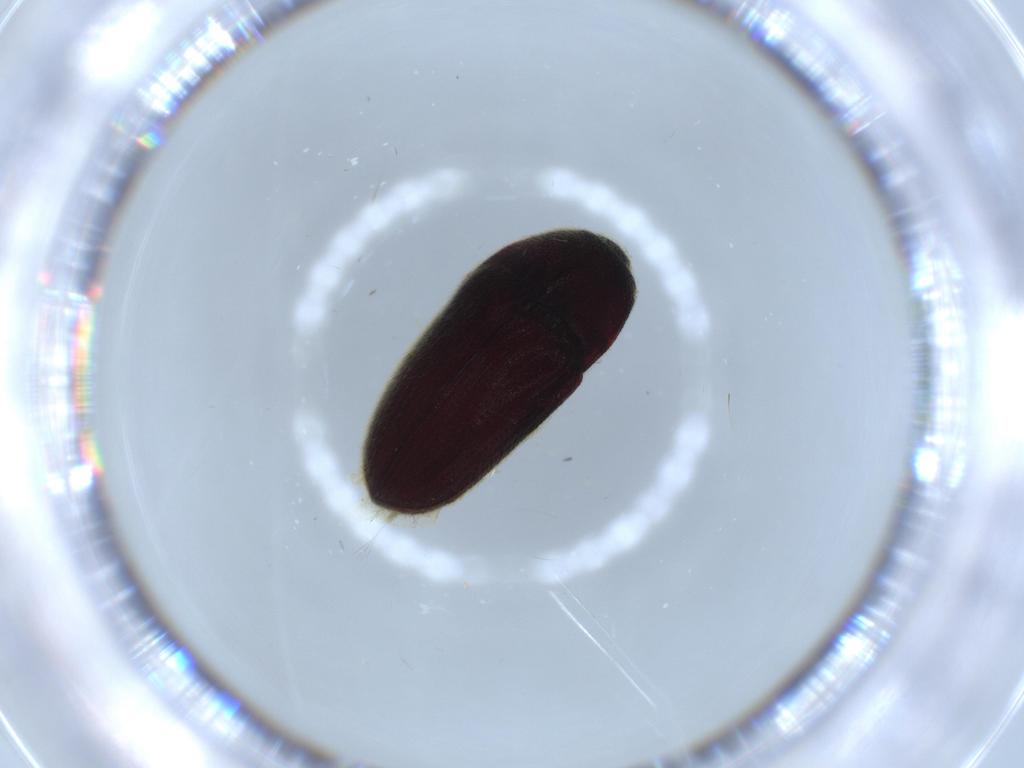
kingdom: Animalia
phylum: Arthropoda
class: Insecta
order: Coleoptera
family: Throscidae
